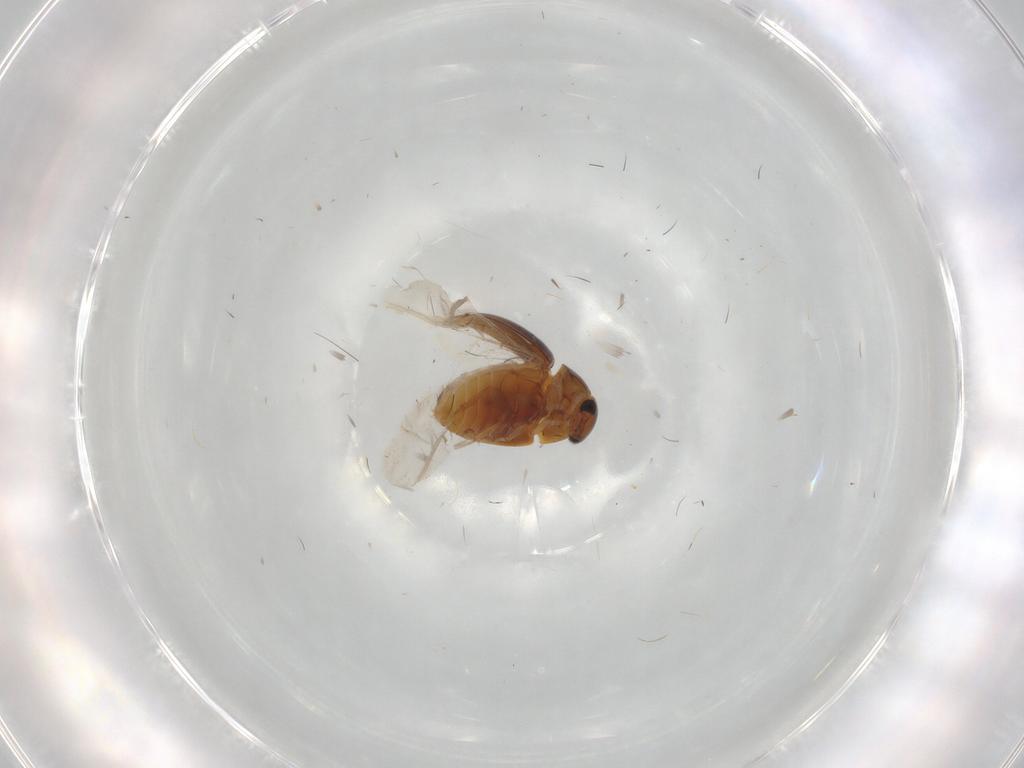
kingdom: Animalia
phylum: Arthropoda
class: Insecta
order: Coleoptera
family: Phalacridae
